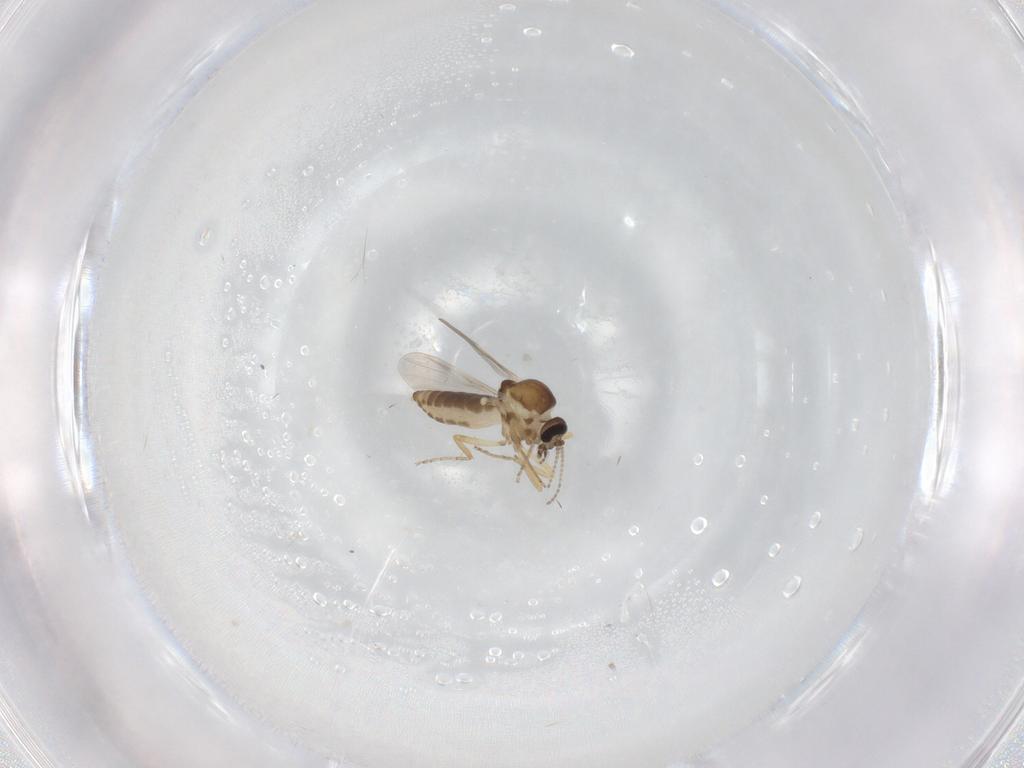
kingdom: Animalia
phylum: Arthropoda
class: Insecta
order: Diptera
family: Ceratopogonidae
